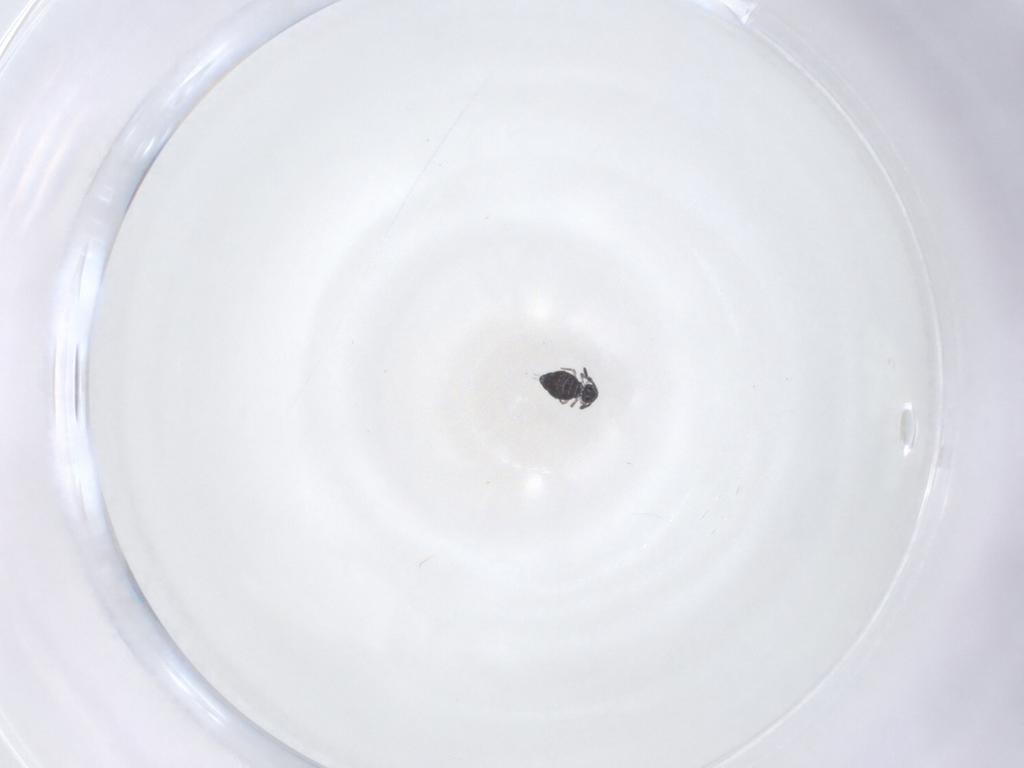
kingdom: Animalia
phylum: Arthropoda
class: Collembola
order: Symphypleona
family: Katiannidae
